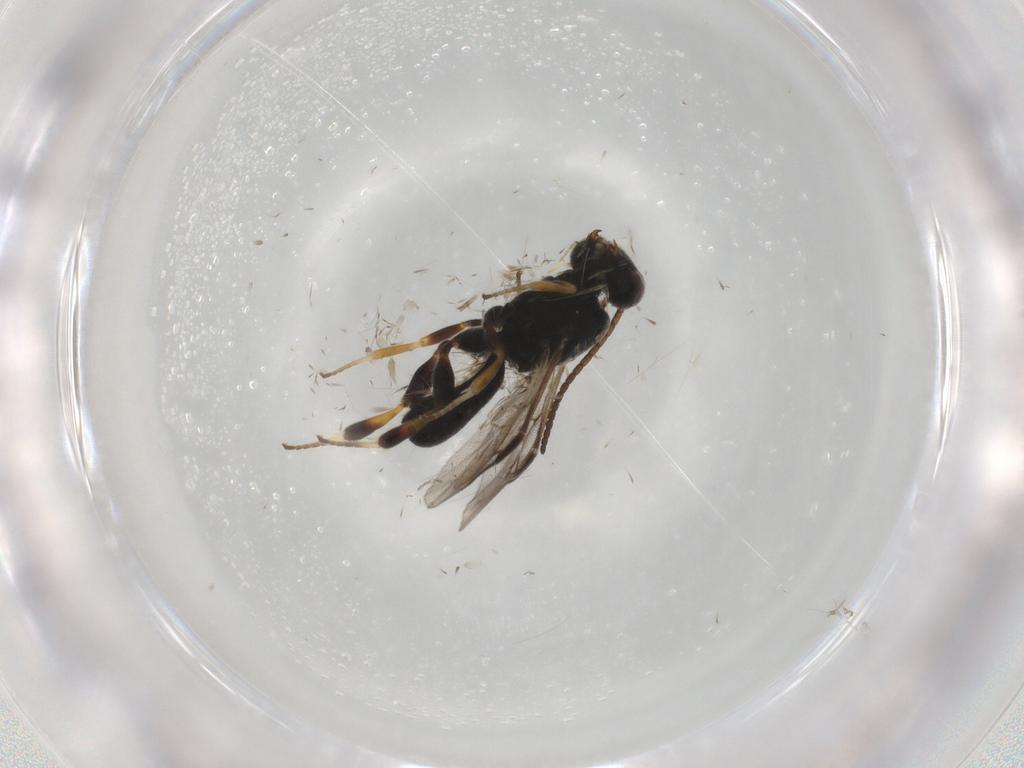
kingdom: Animalia
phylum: Arthropoda
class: Insecta
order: Hymenoptera
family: Braconidae
